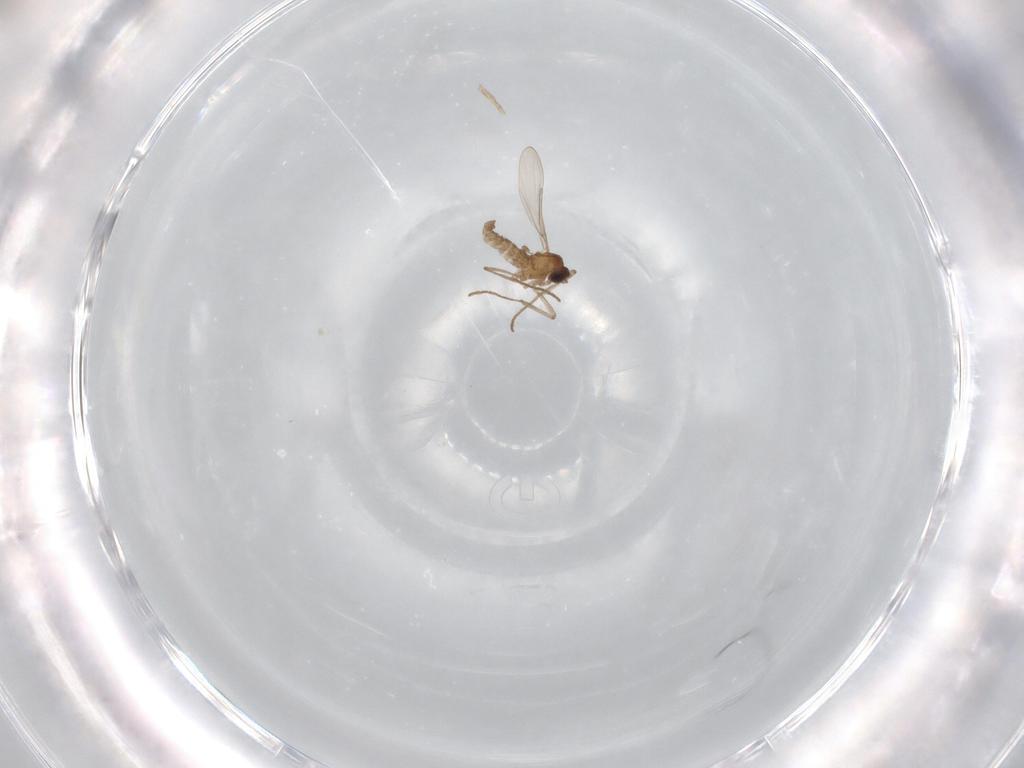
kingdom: Animalia
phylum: Arthropoda
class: Insecta
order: Diptera
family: Cecidomyiidae
